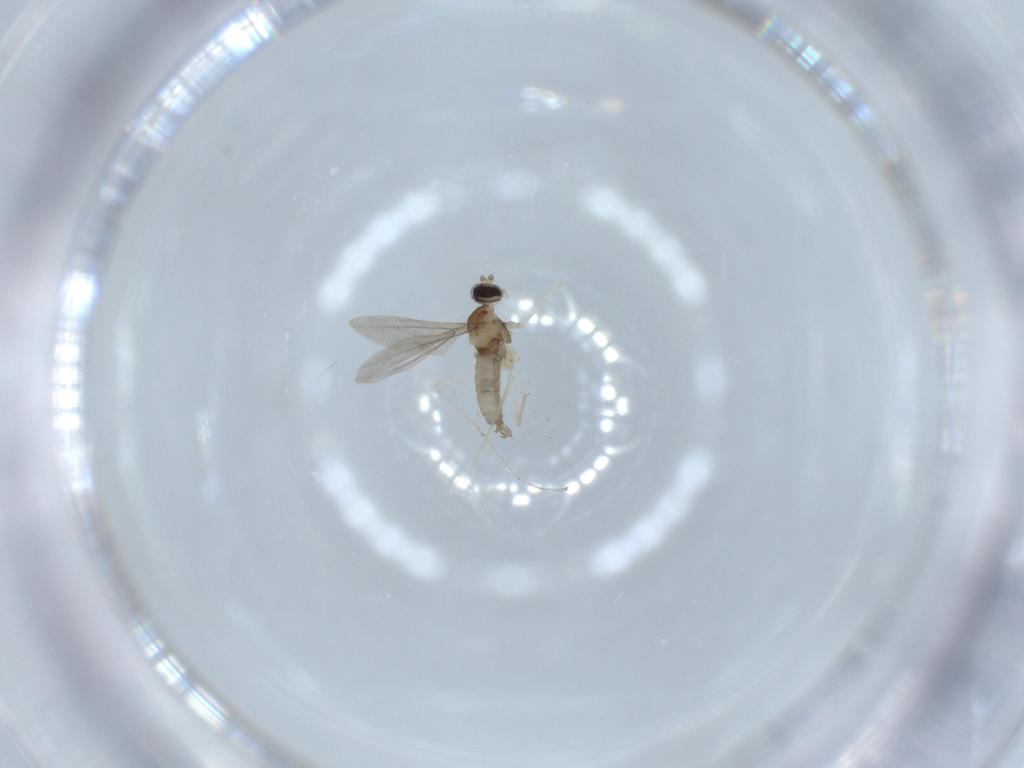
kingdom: Animalia
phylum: Arthropoda
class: Insecta
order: Diptera
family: Cecidomyiidae
